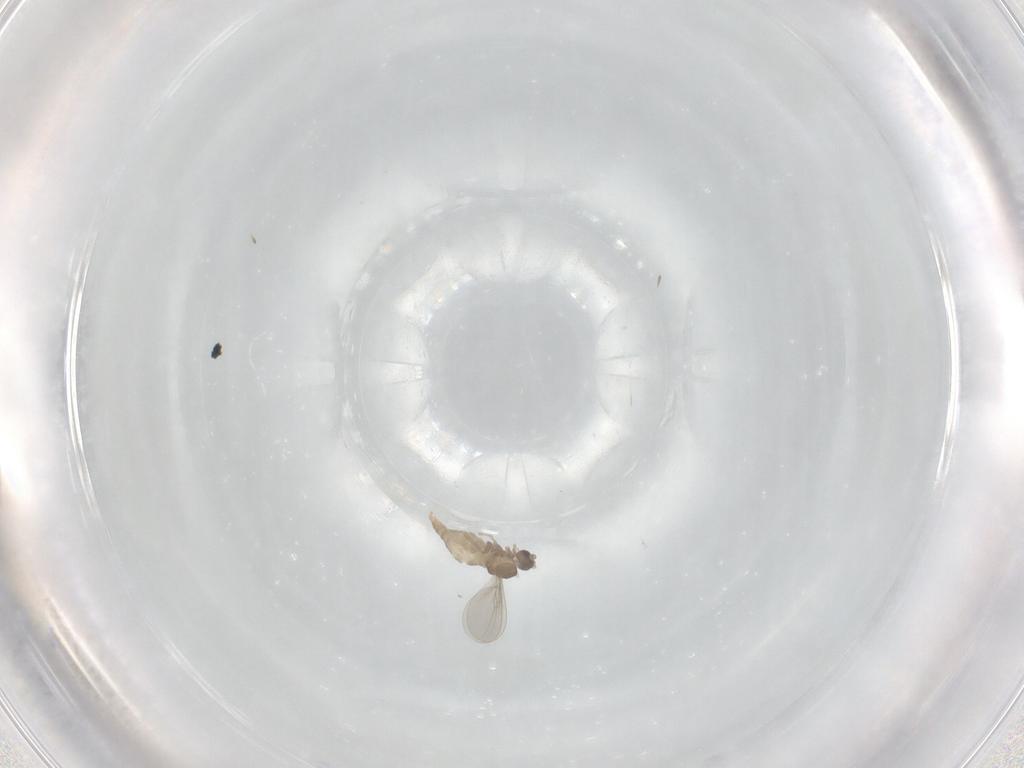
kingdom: Animalia
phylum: Arthropoda
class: Insecta
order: Diptera
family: Cecidomyiidae
